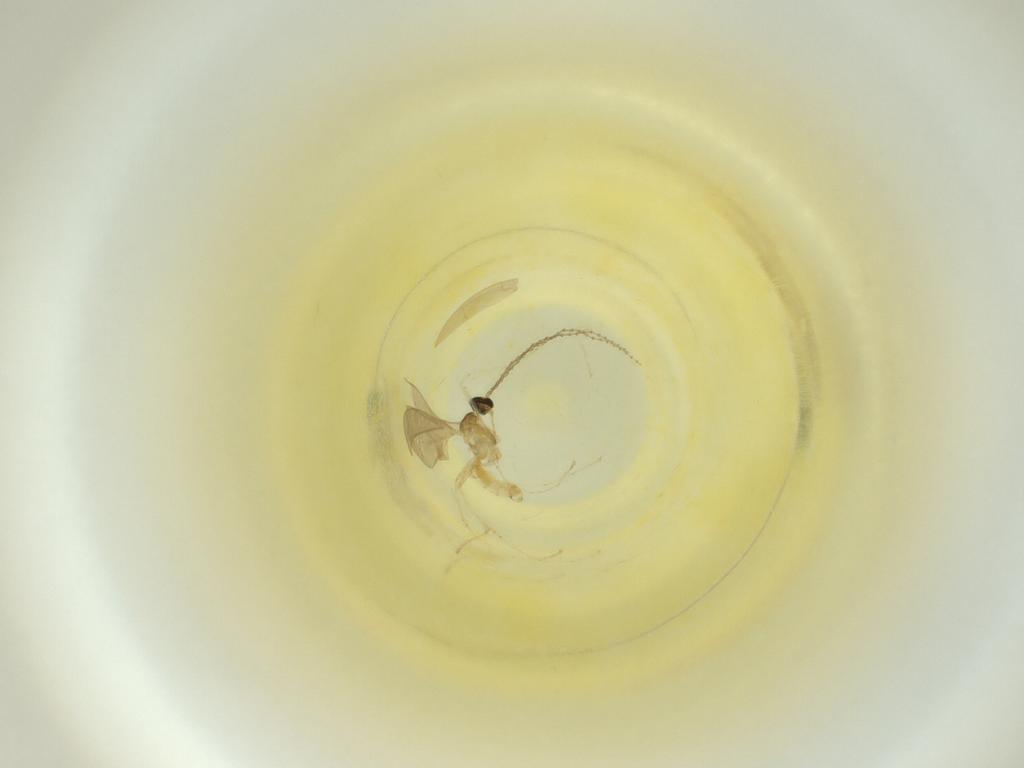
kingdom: Animalia
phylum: Arthropoda
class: Insecta
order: Diptera
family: Cecidomyiidae
